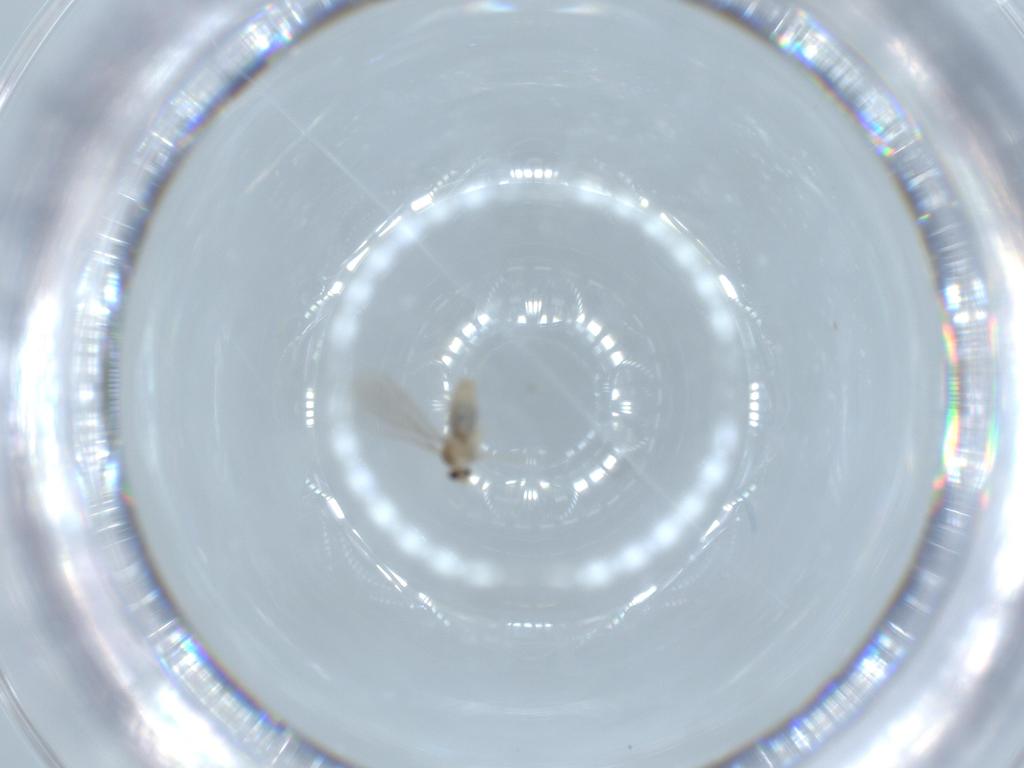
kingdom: Animalia
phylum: Arthropoda
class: Insecta
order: Diptera
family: Cecidomyiidae
